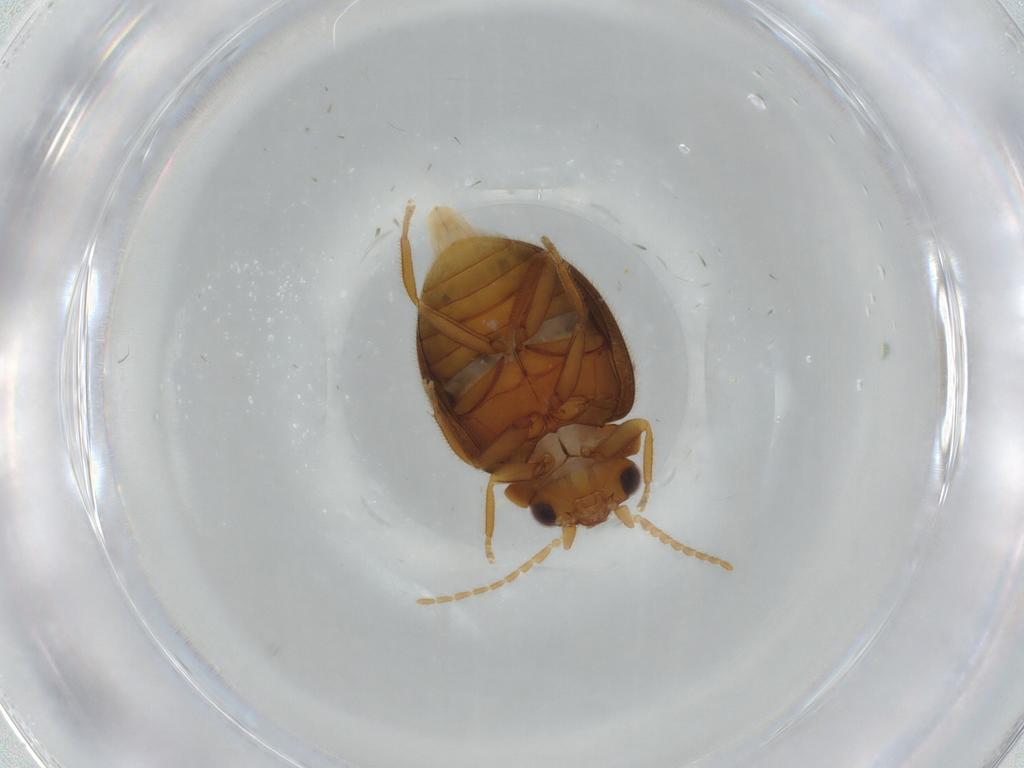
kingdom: Animalia
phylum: Arthropoda
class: Insecta
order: Coleoptera
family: Scirtidae
